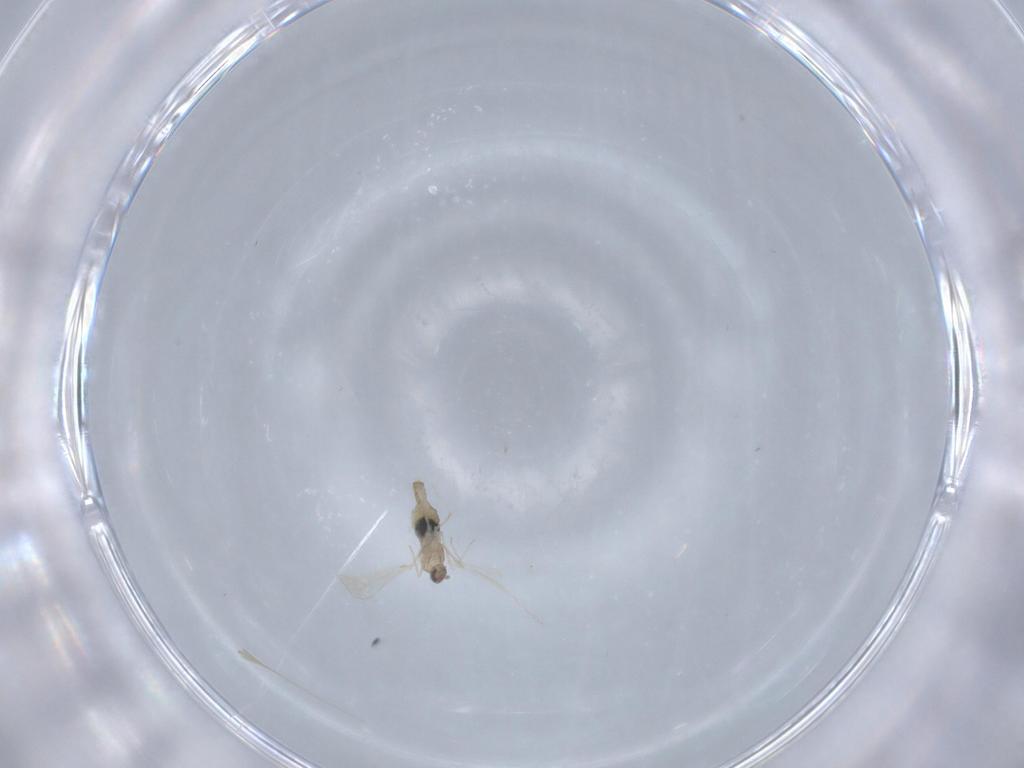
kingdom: Animalia
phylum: Arthropoda
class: Insecta
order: Diptera
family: Cecidomyiidae
